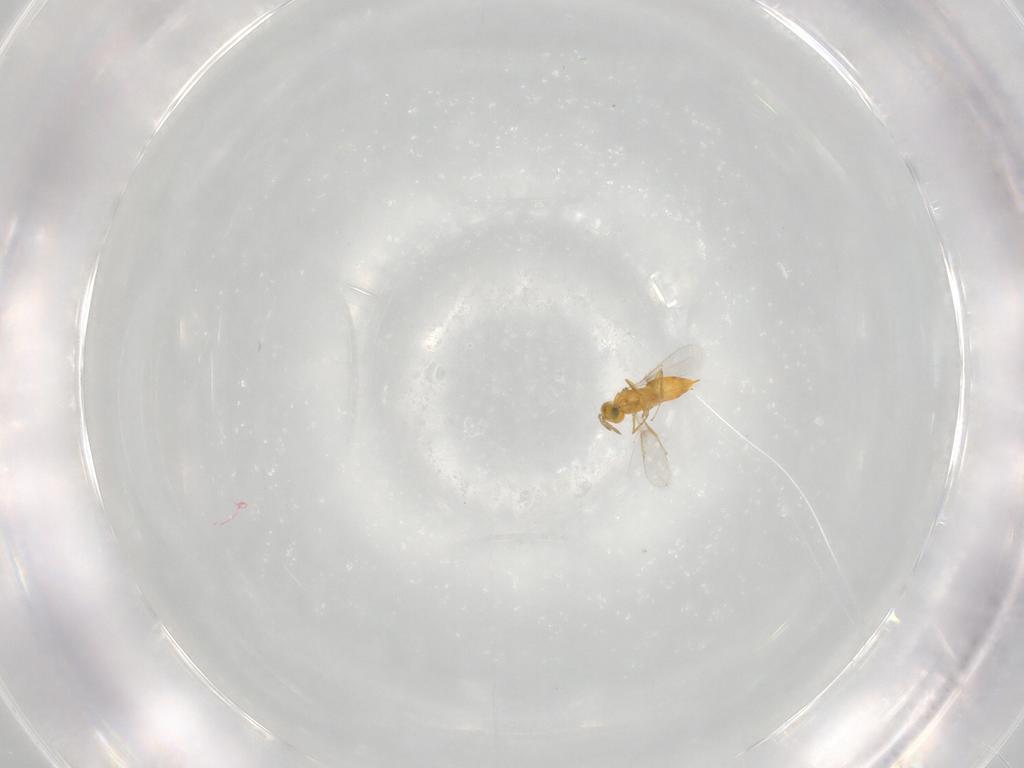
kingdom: Animalia
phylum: Arthropoda
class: Insecta
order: Hymenoptera
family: Aphelinidae
